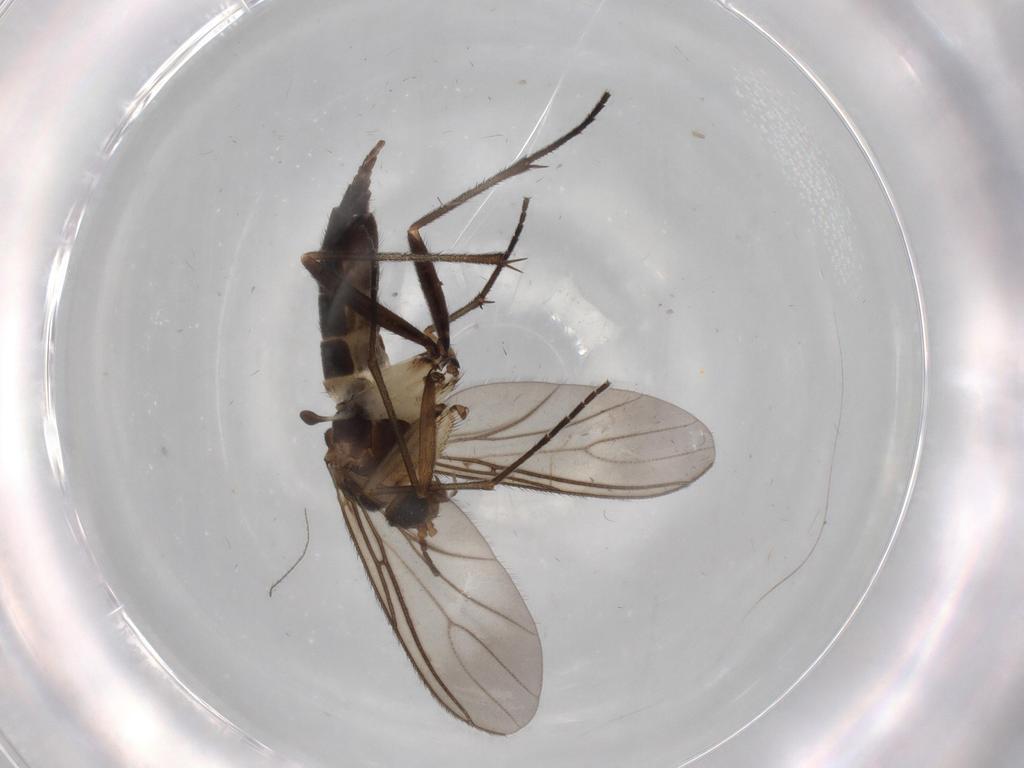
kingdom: Animalia
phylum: Arthropoda
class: Insecta
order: Diptera
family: Sciaridae
